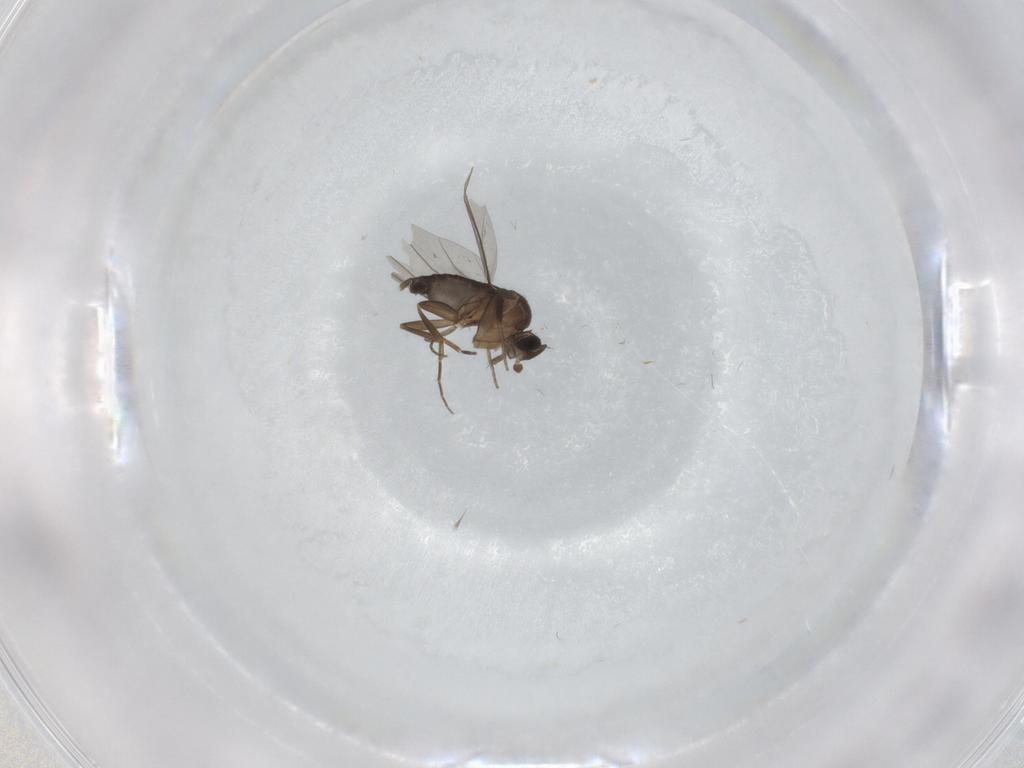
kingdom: Animalia
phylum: Arthropoda
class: Insecta
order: Diptera
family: Phoridae
